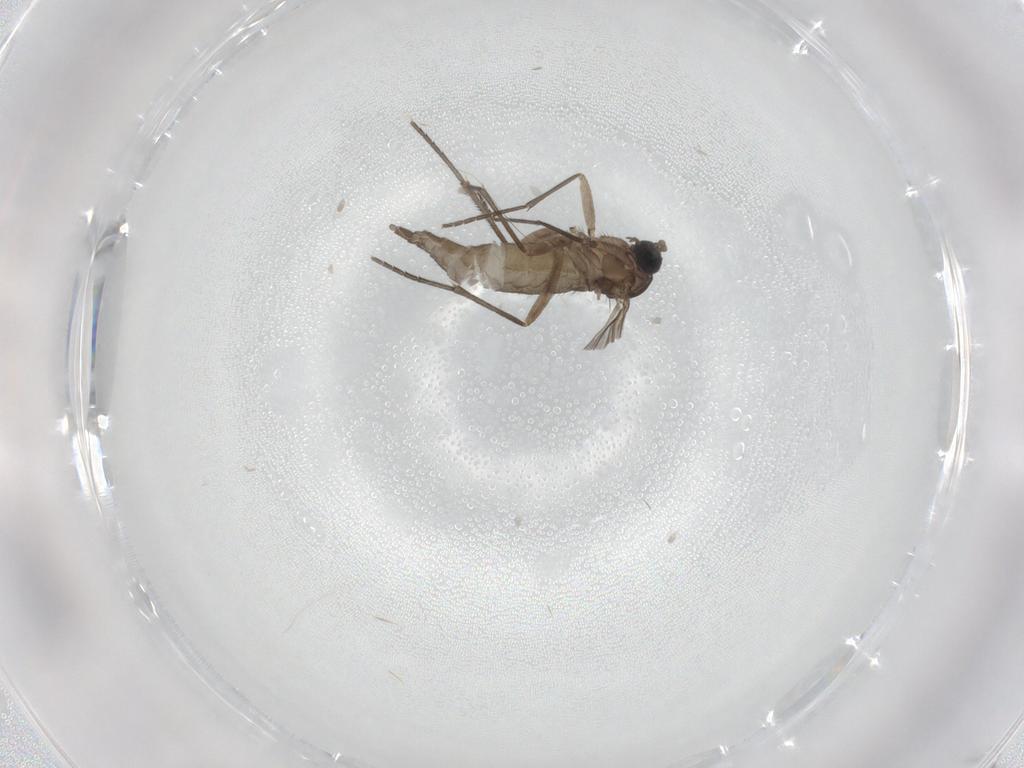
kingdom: Animalia
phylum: Arthropoda
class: Insecta
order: Diptera
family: Sciaridae
